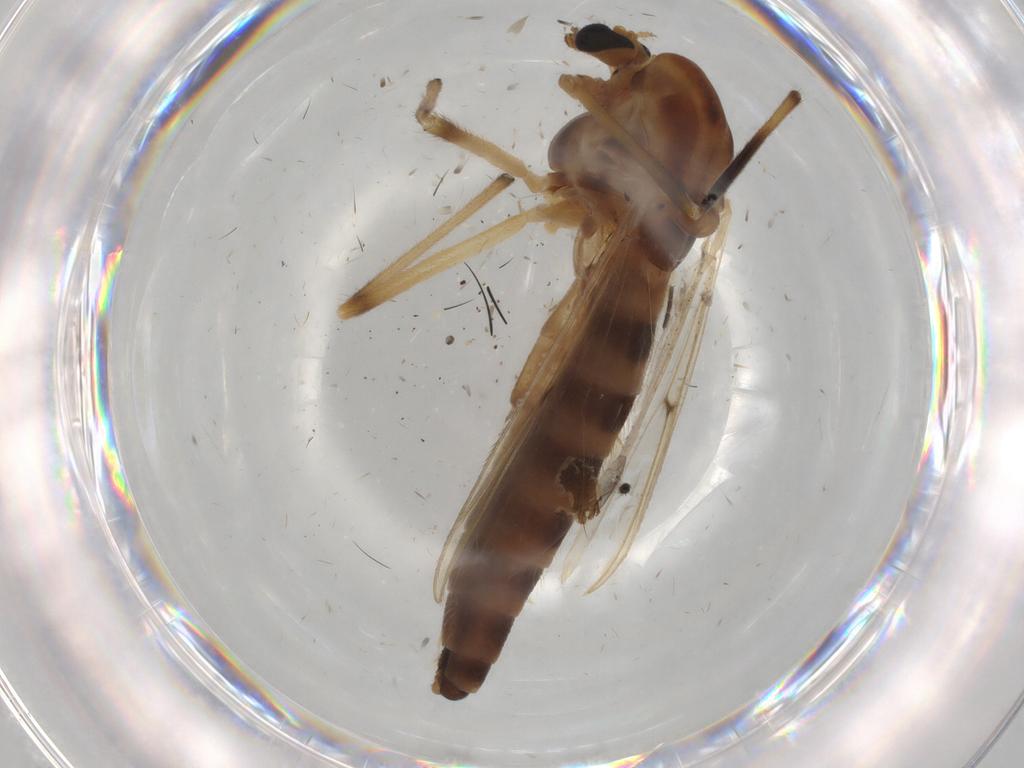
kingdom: Animalia
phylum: Arthropoda
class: Insecta
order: Diptera
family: Chironomidae
